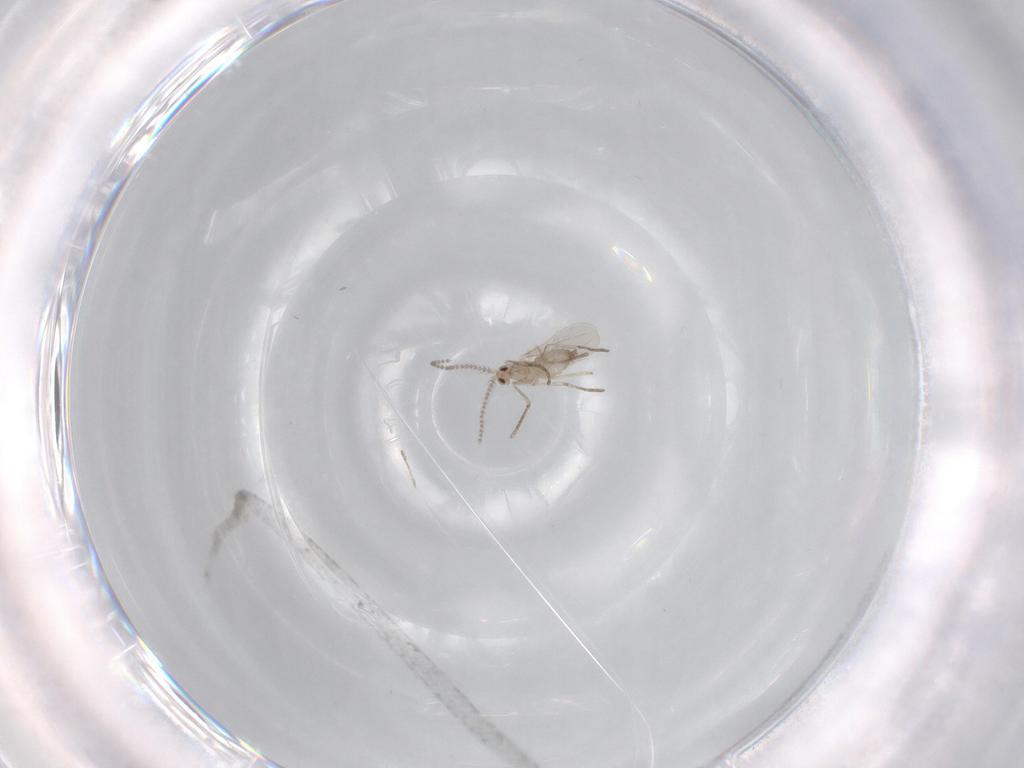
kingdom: Animalia
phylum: Arthropoda
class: Insecta
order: Diptera
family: Cecidomyiidae
